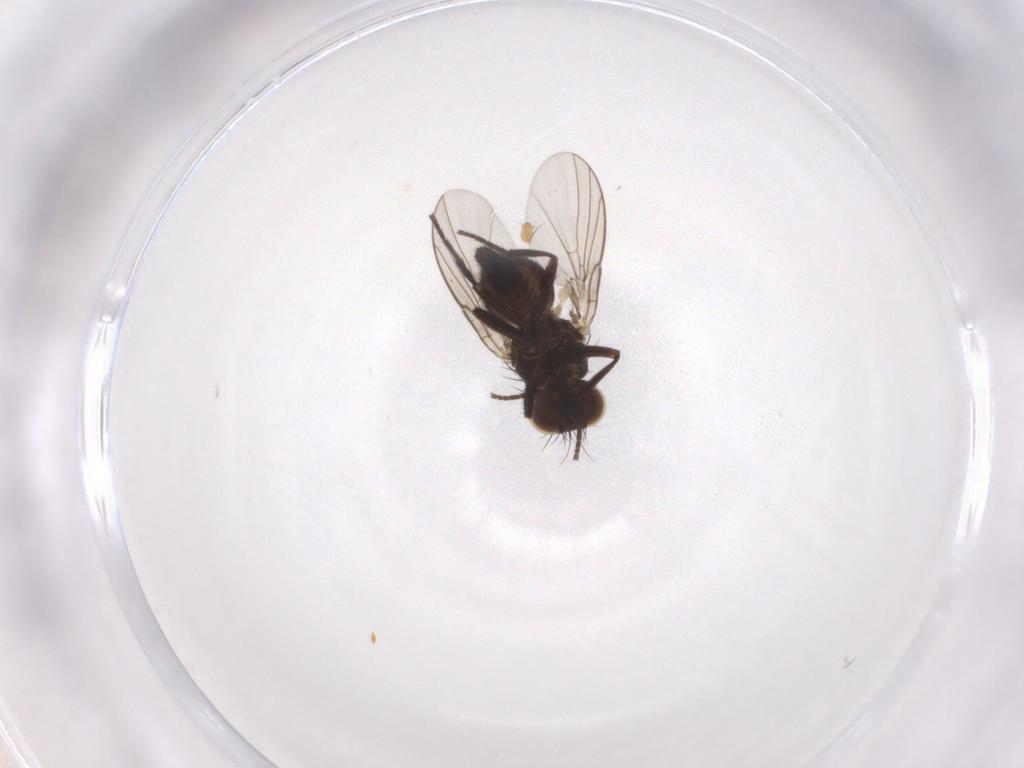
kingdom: Animalia
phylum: Arthropoda
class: Insecta
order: Diptera
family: Agromyzidae
